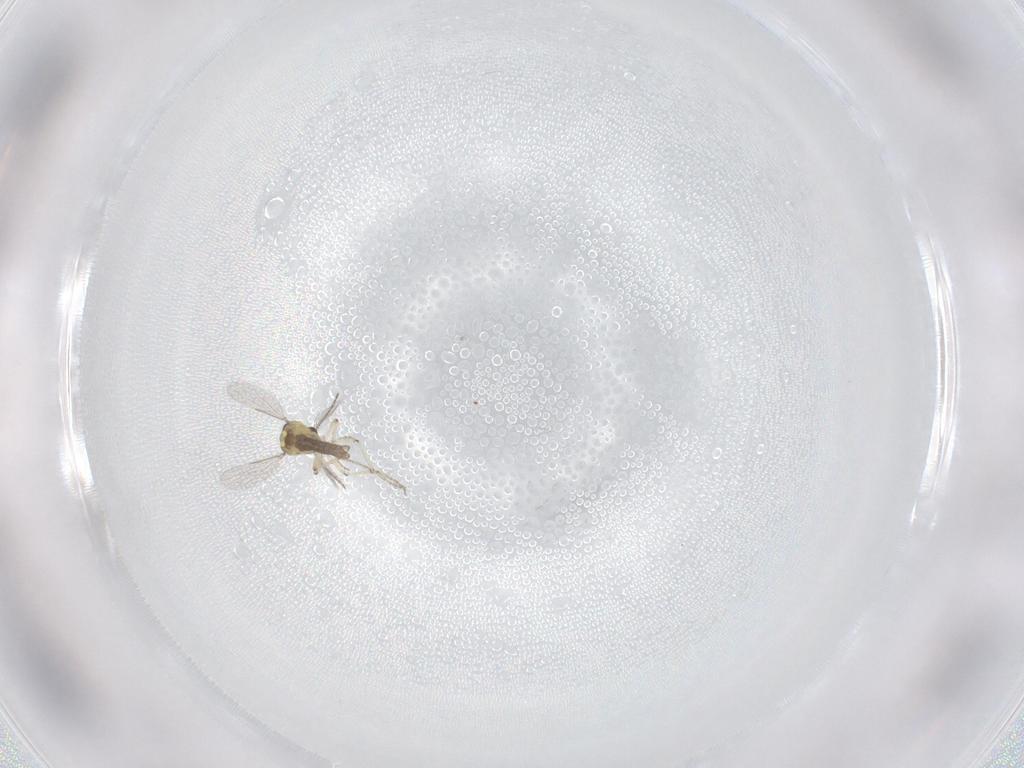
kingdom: Animalia
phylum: Arthropoda
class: Insecta
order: Diptera
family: Ceratopogonidae
